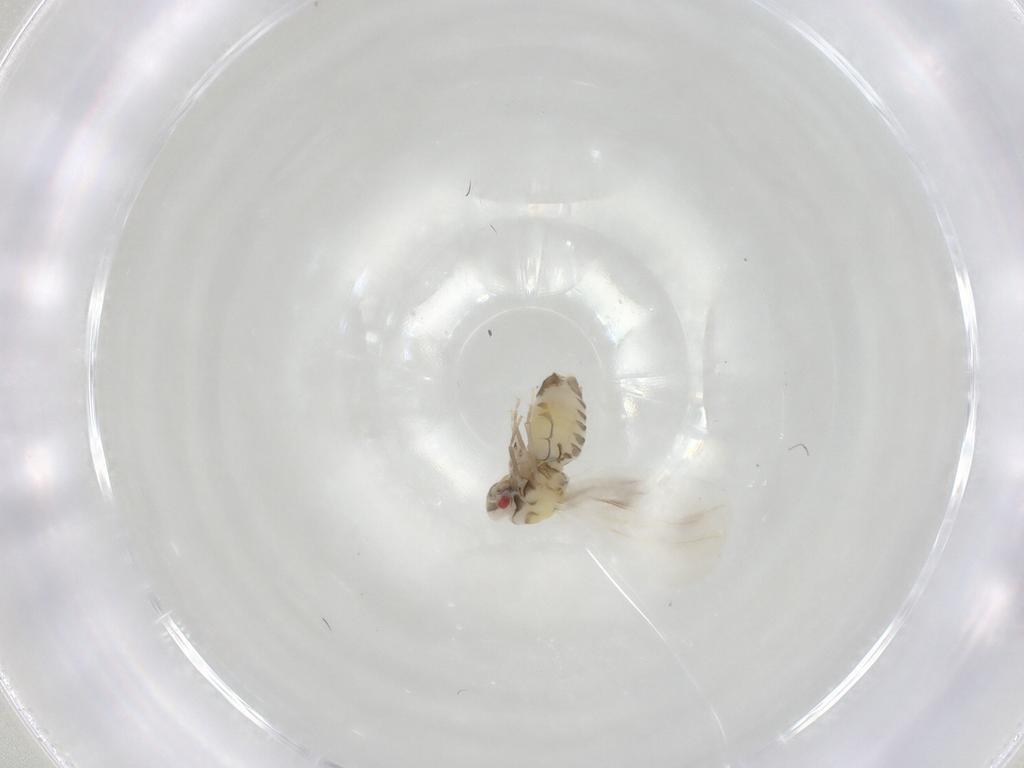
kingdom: Animalia
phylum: Arthropoda
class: Insecta
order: Hemiptera
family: Aleyrodidae
